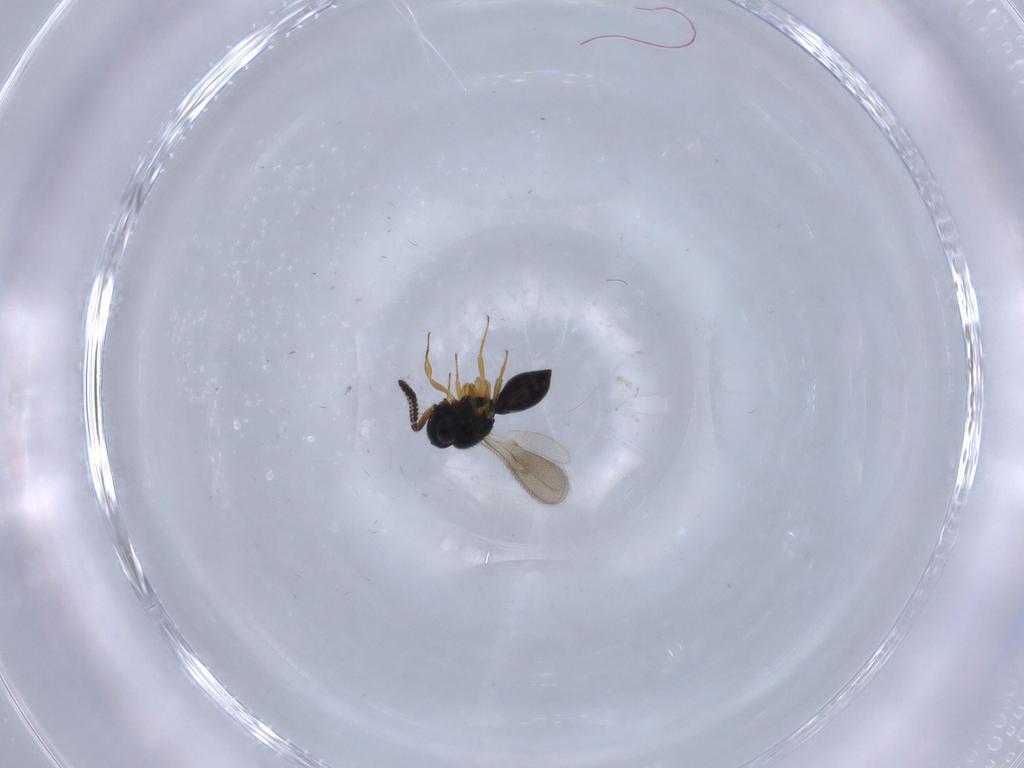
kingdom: Animalia
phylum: Arthropoda
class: Insecta
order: Hymenoptera
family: Scelionidae
